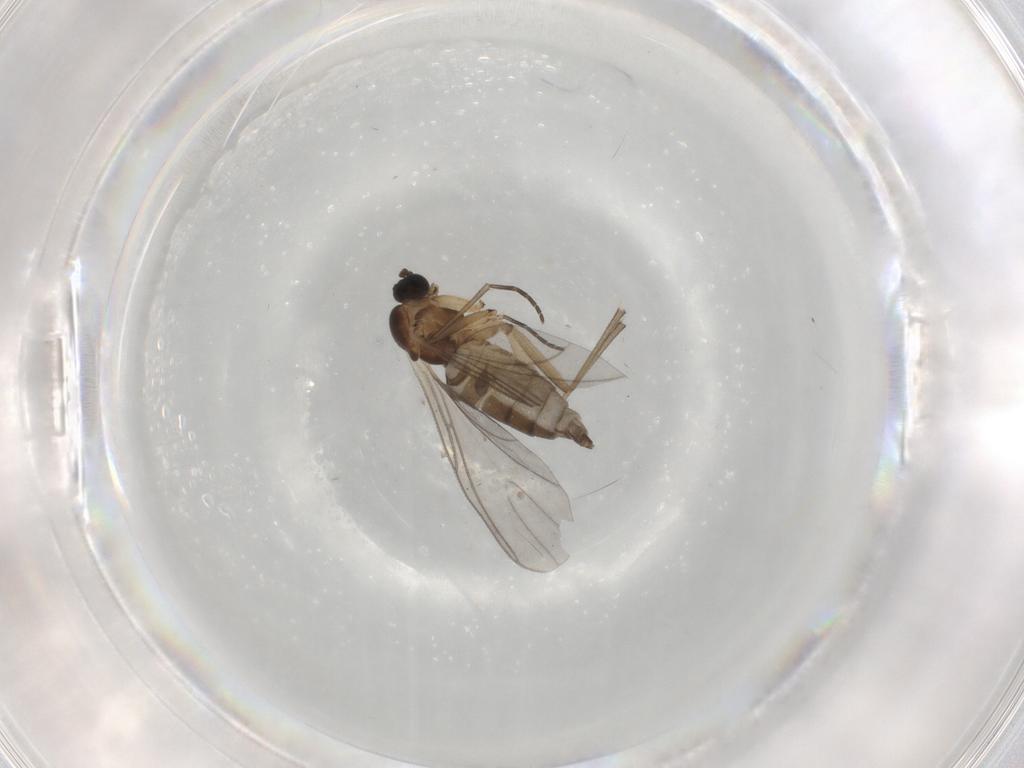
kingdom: Animalia
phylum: Arthropoda
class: Insecta
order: Diptera
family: Sciaridae
